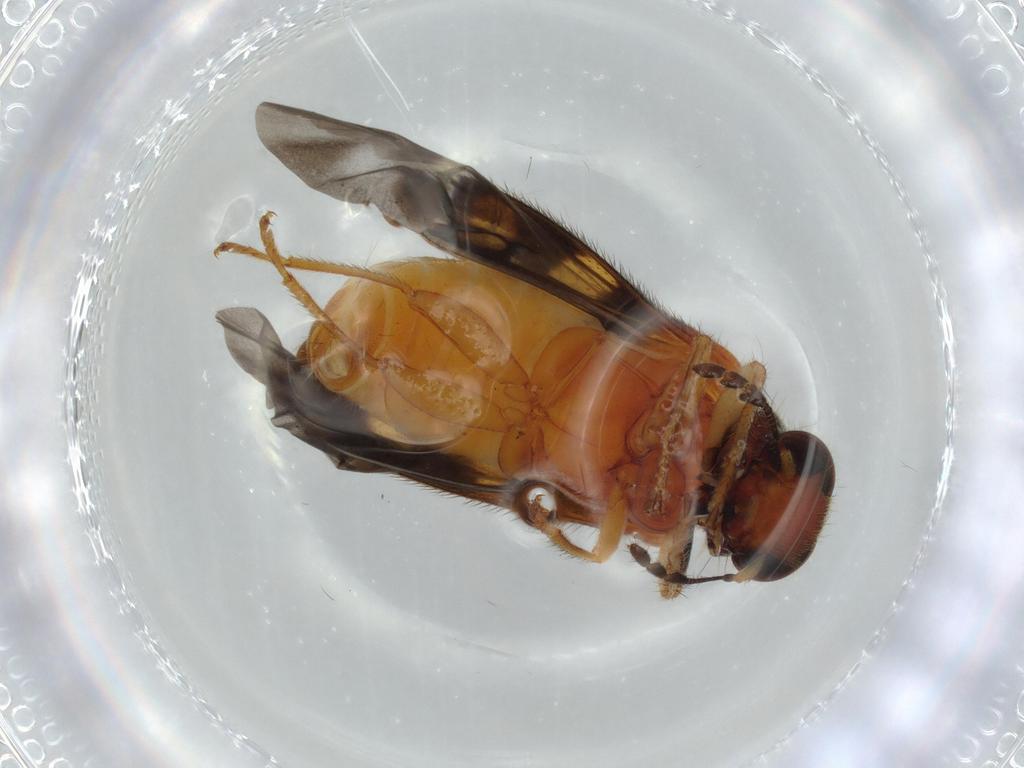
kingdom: Animalia
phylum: Arthropoda
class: Insecta
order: Coleoptera
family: Cleridae
